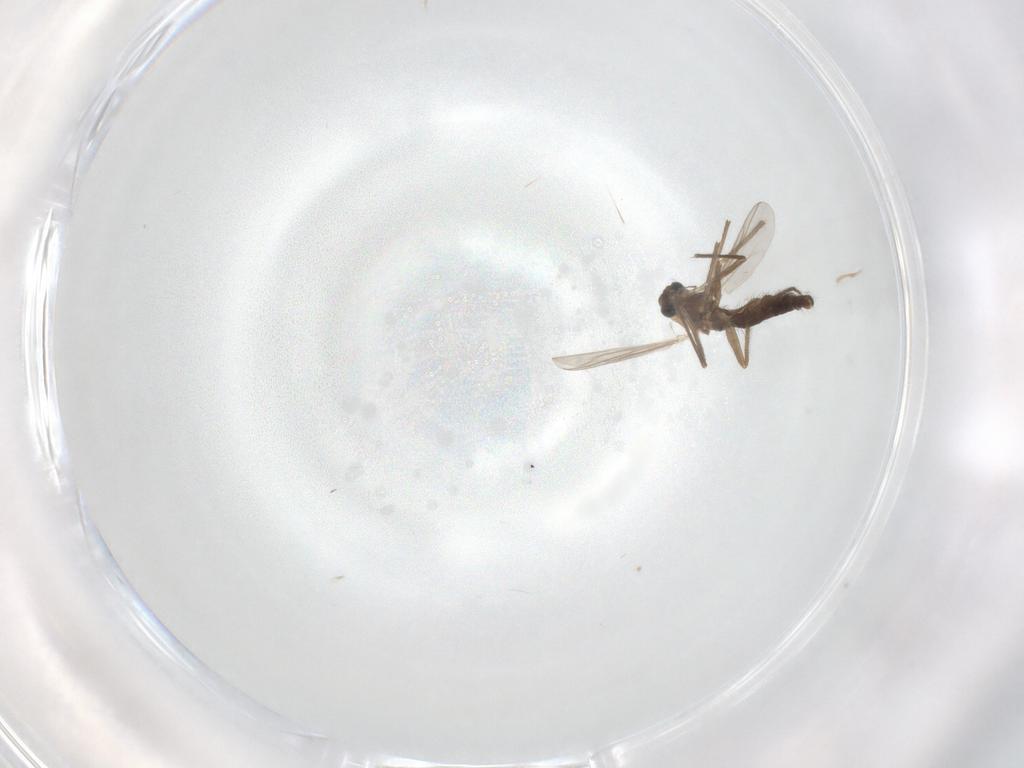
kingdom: Animalia
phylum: Arthropoda
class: Insecta
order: Diptera
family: Chironomidae
